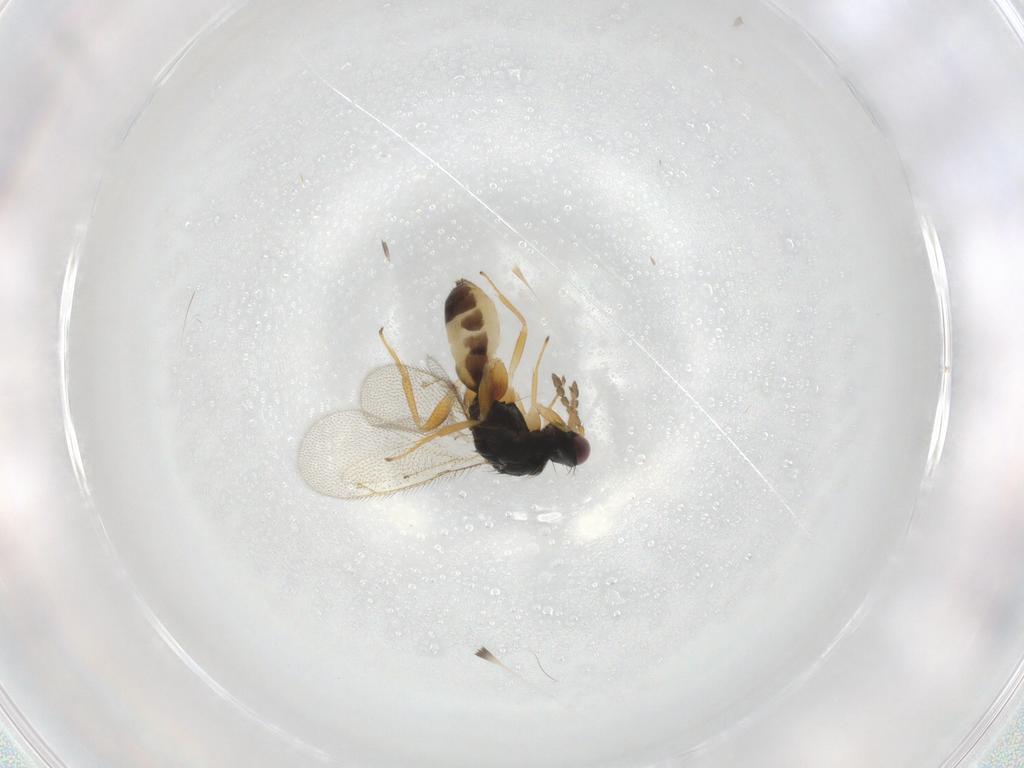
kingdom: Animalia
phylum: Arthropoda
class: Insecta
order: Hymenoptera
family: Eulophidae
